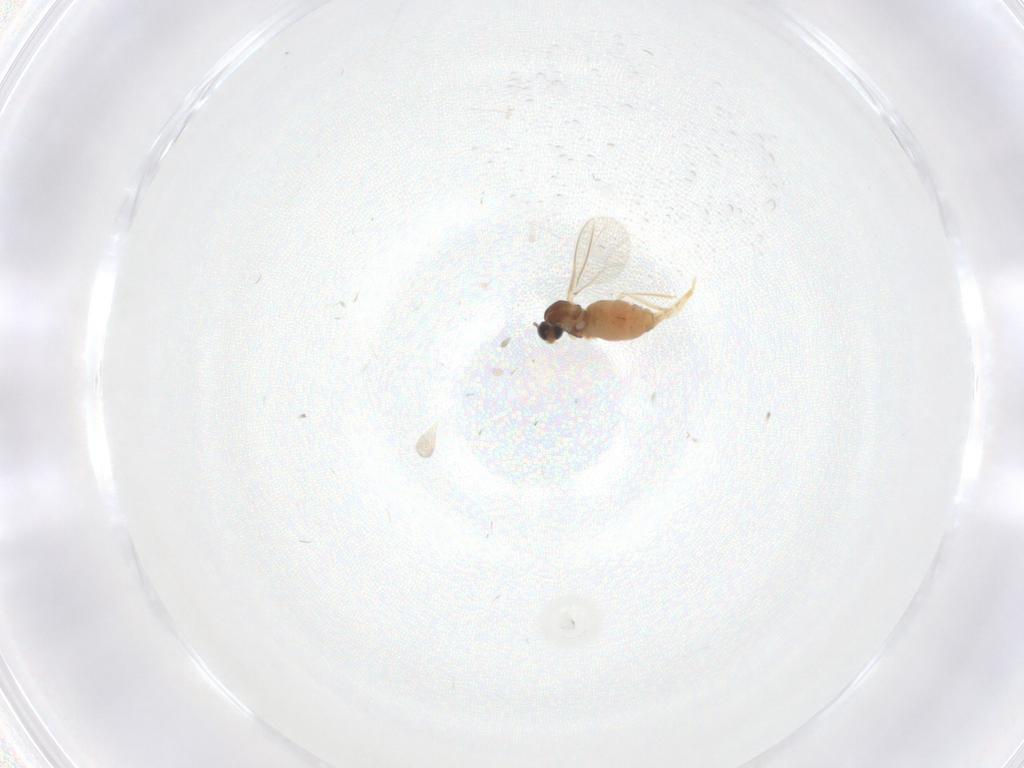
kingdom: Animalia
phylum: Arthropoda
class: Insecta
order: Diptera
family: Cecidomyiidae
